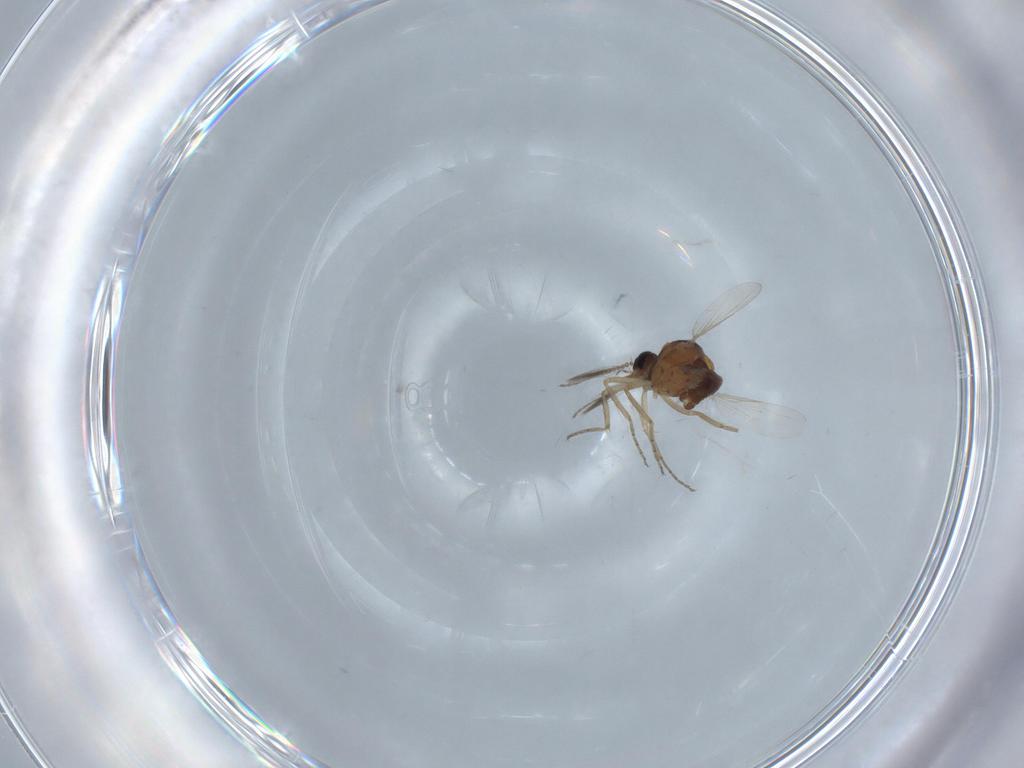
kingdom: Animalia
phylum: Arthropoda
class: Insecta
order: Diptera
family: Ceratopogonidae
